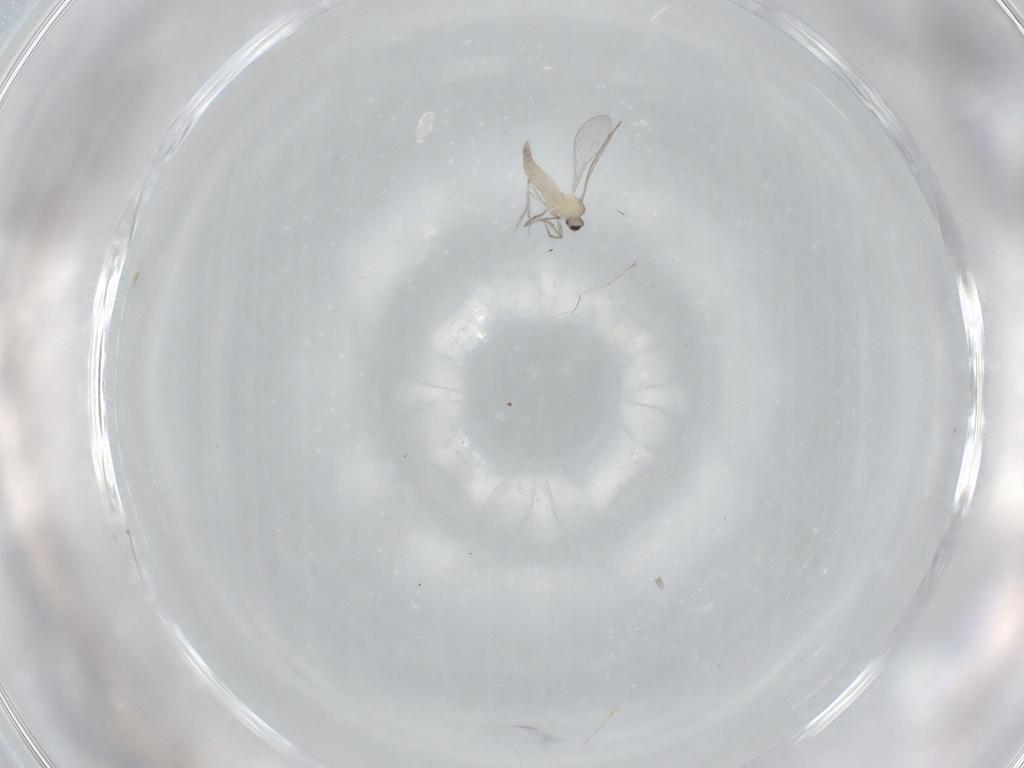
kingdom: Animalia
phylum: Arthropoda
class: Insecta
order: Diptera
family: Cecidomyiidae
